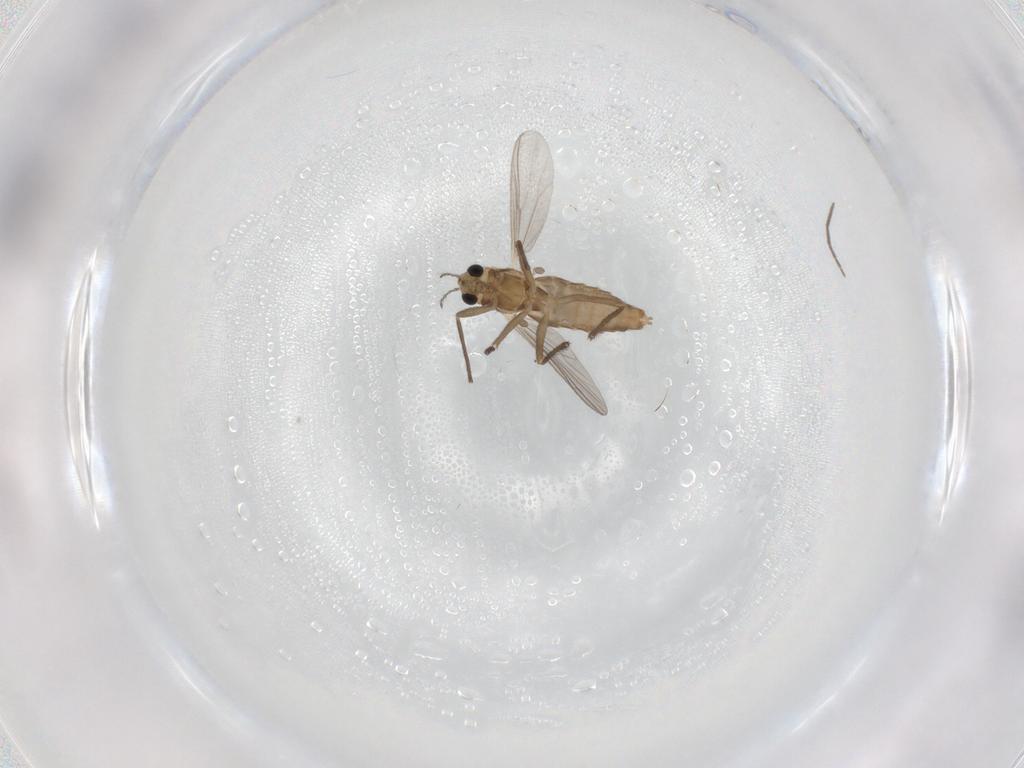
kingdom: Animalia
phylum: Arthropoda
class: Insecta
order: Diptera
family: Chironomidae
